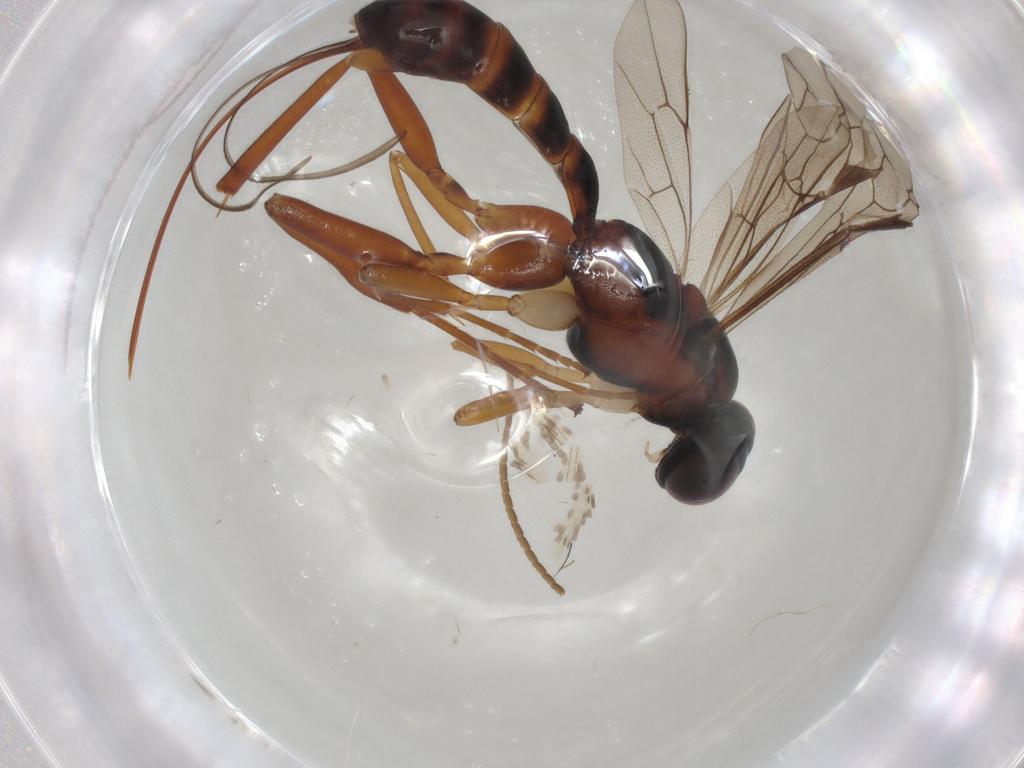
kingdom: Animalia
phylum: Arthropoda
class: Insecta
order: Hymenoptera
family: Ichneumonidae
